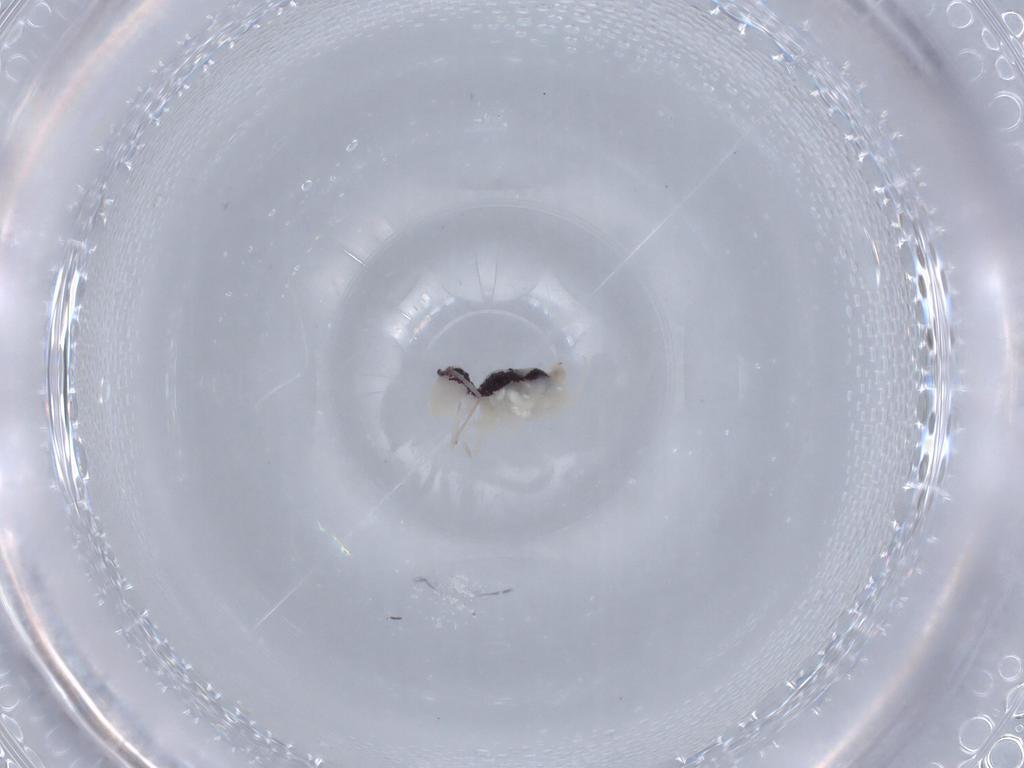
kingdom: Animalia
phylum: Arthropoda
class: Collembola
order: Symphypleona
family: Bourletiellidae
